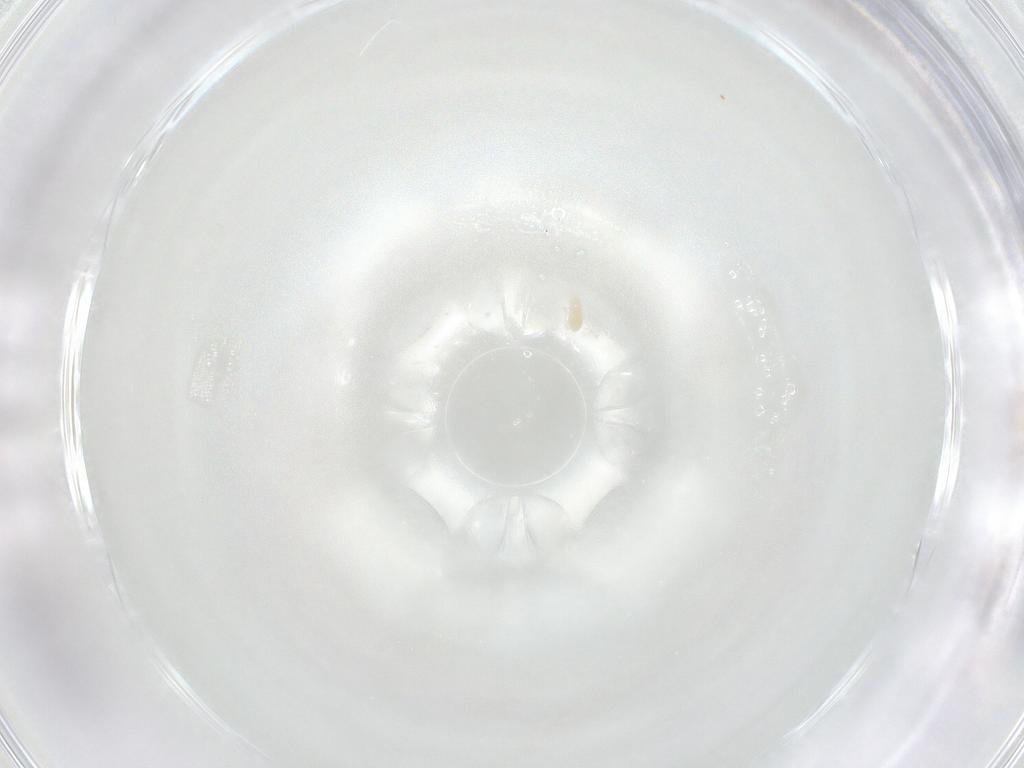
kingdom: Animalia
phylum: Arthropoda
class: Arachnida
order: Trombidiformes
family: Eupodidae
